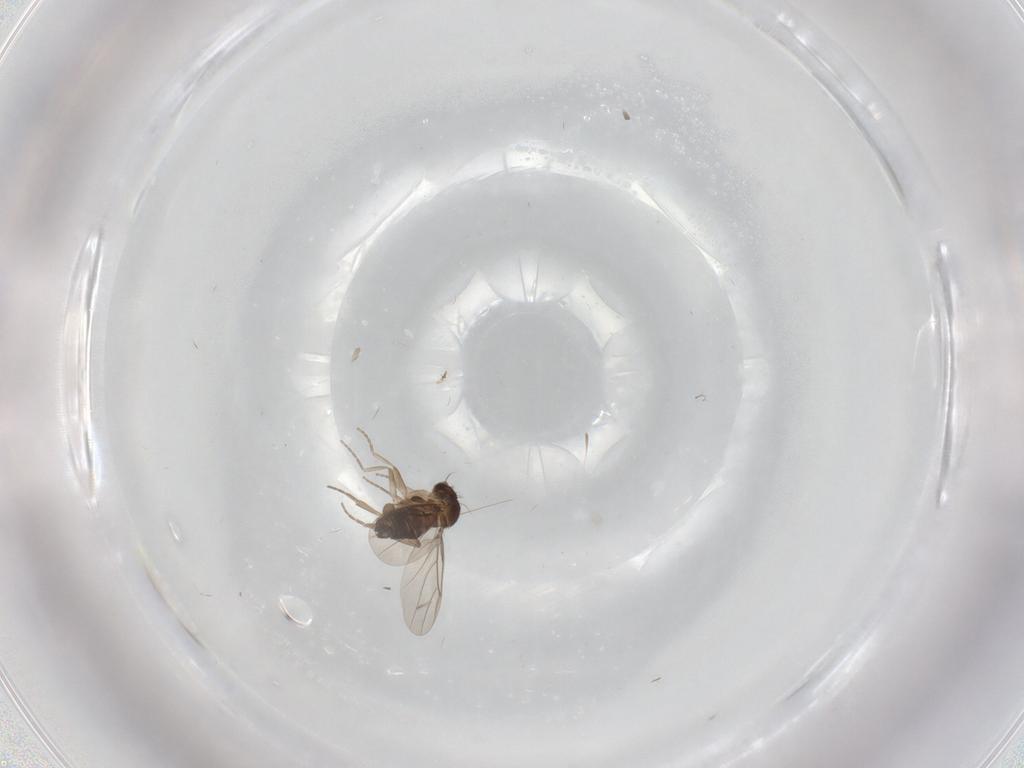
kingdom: Animalia
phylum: Arthropoda
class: Insecta
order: Diptera
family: Phoridae
